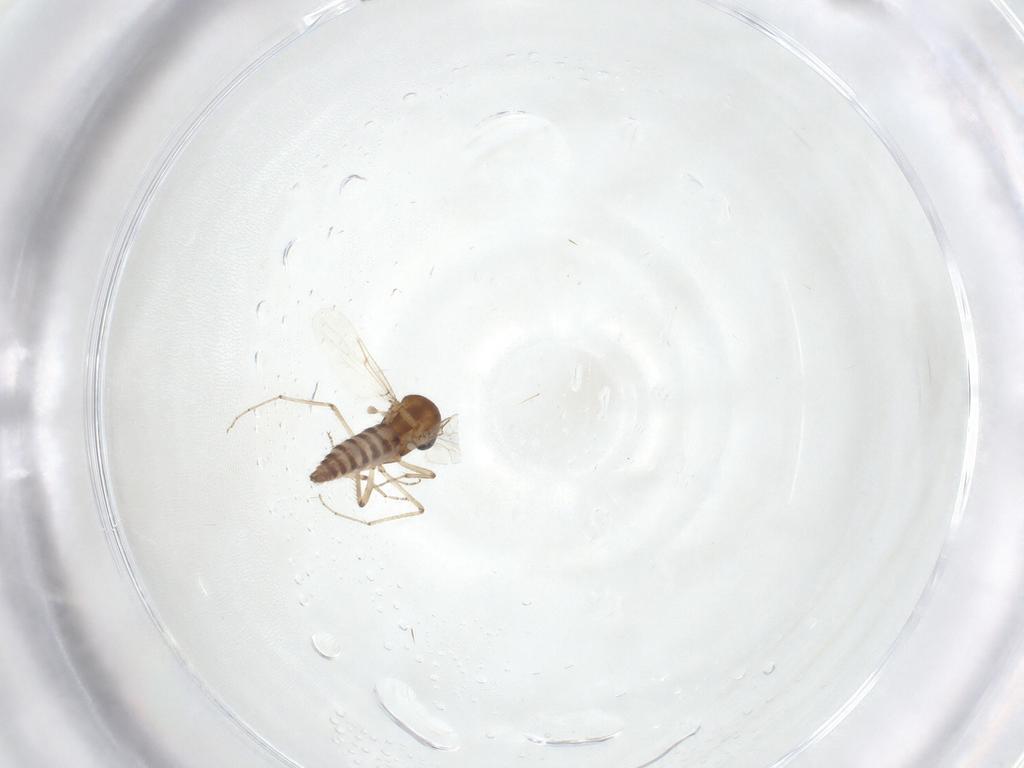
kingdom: Animalia
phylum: Arthropoda
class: Insecta
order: Diptera
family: Ceratopogonidae
